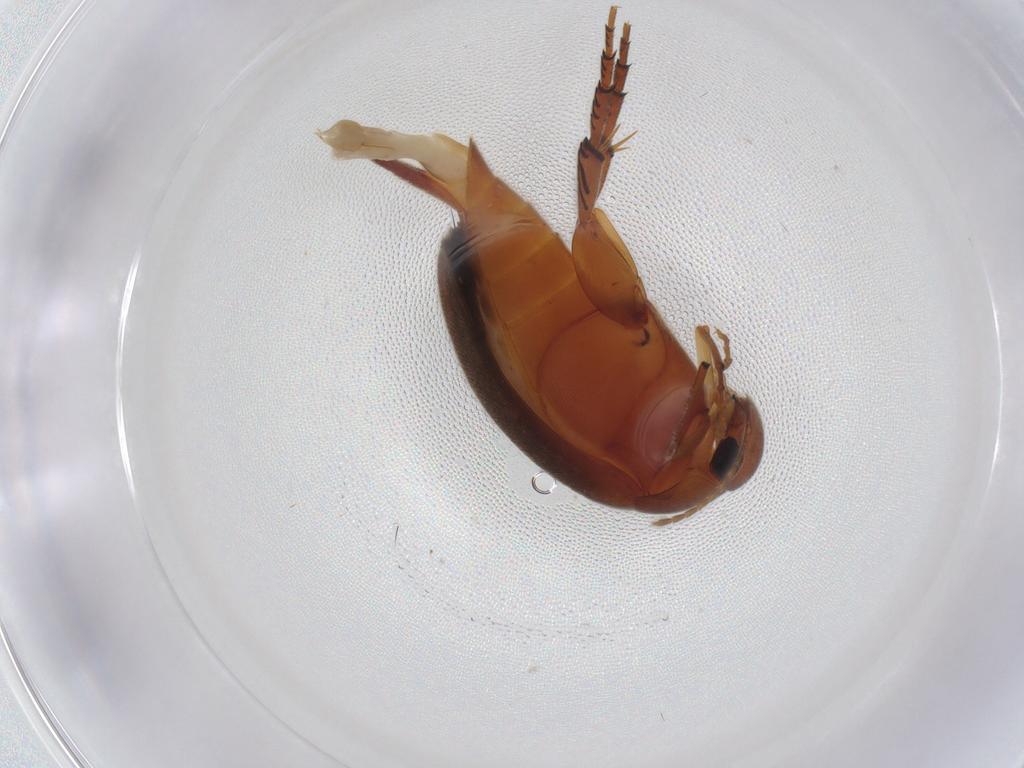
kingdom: Animalia
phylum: Arthropoda
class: Insecta
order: Coleoptera
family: Mordellidae
